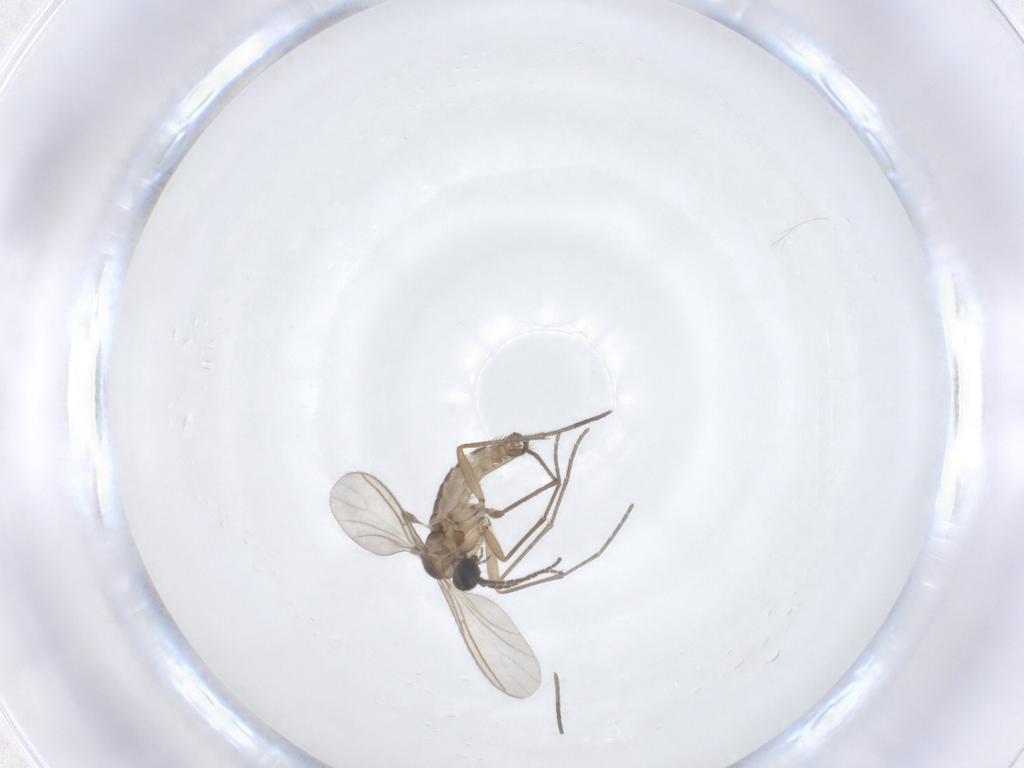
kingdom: Animalia
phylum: Arthropoda
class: Insecta
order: Diptera
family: Sciaridae
